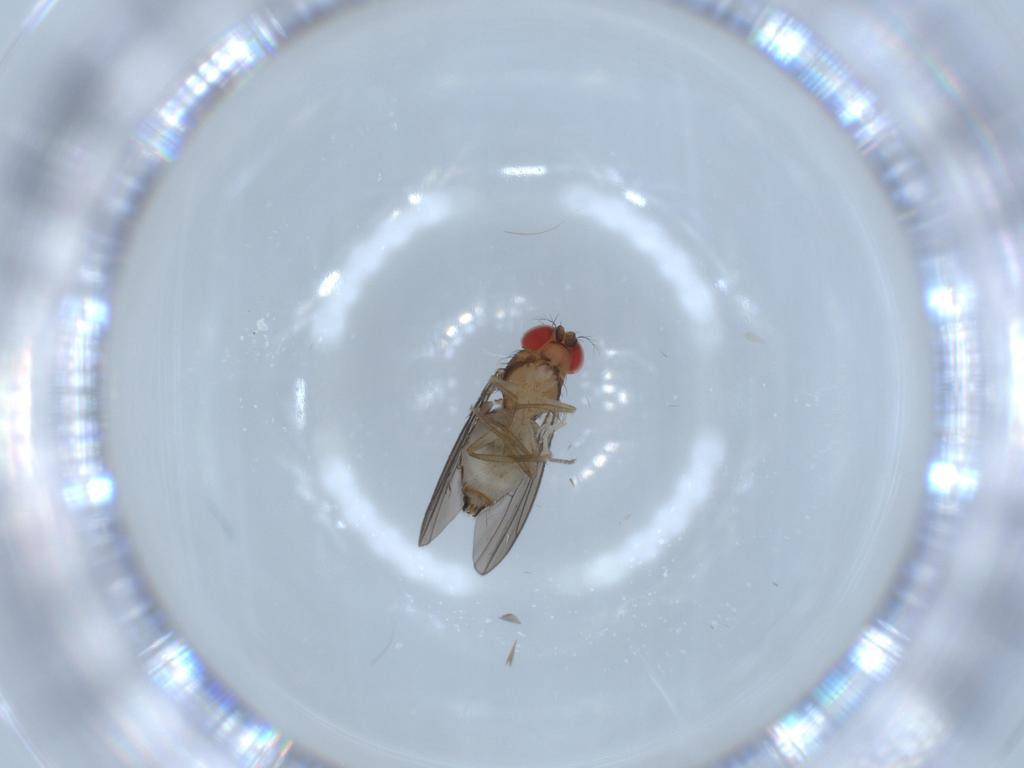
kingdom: Animalia
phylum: Arthropoda
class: Insecta
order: Diptera
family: Drosophilidae
